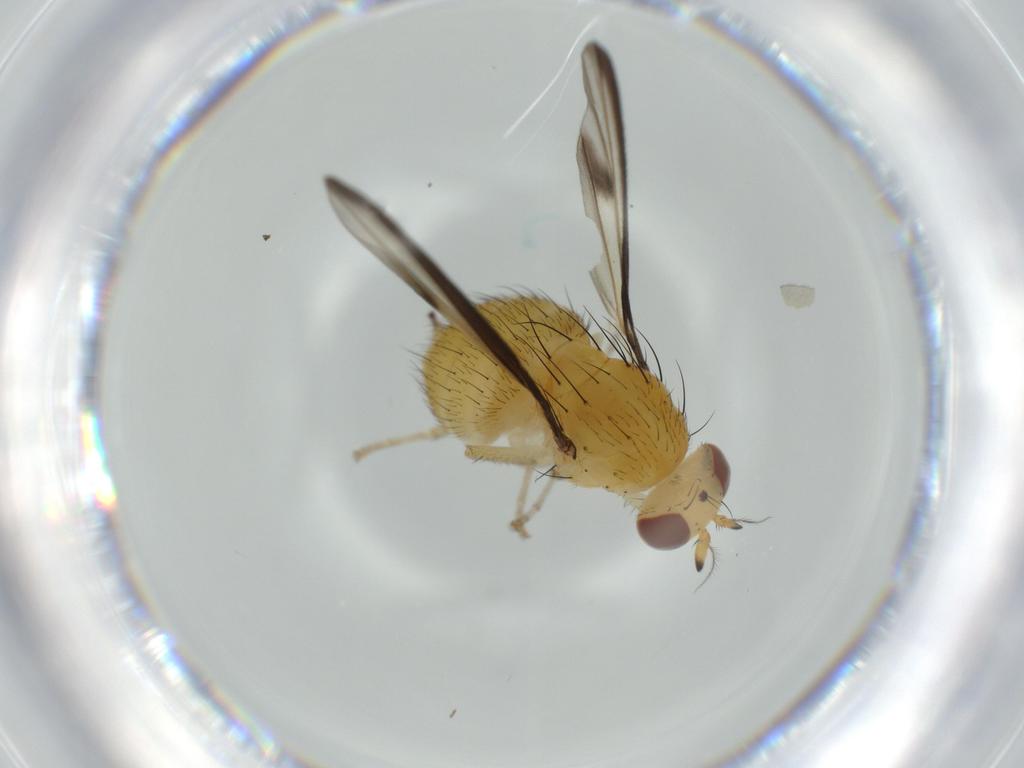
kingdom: Animalia
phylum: Arthropoda
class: Insecta
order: Diptera
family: Lauxaniidae
